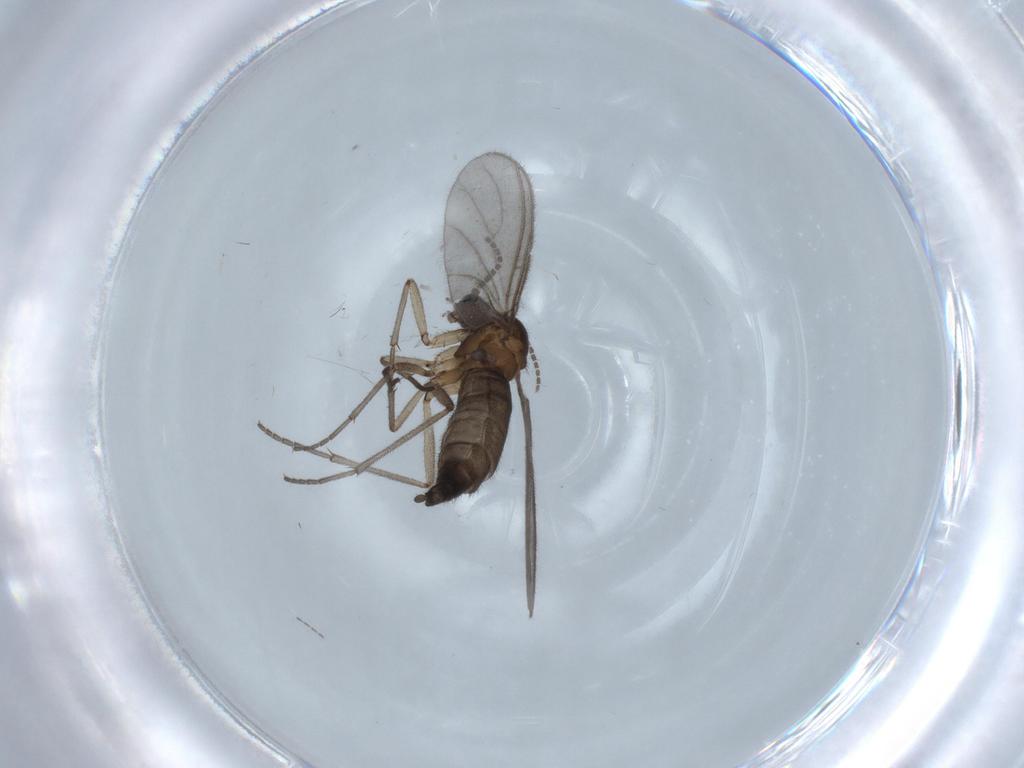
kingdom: Animalia
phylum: Arthropoda
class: Insecta
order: Diptera
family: Sciaridae
